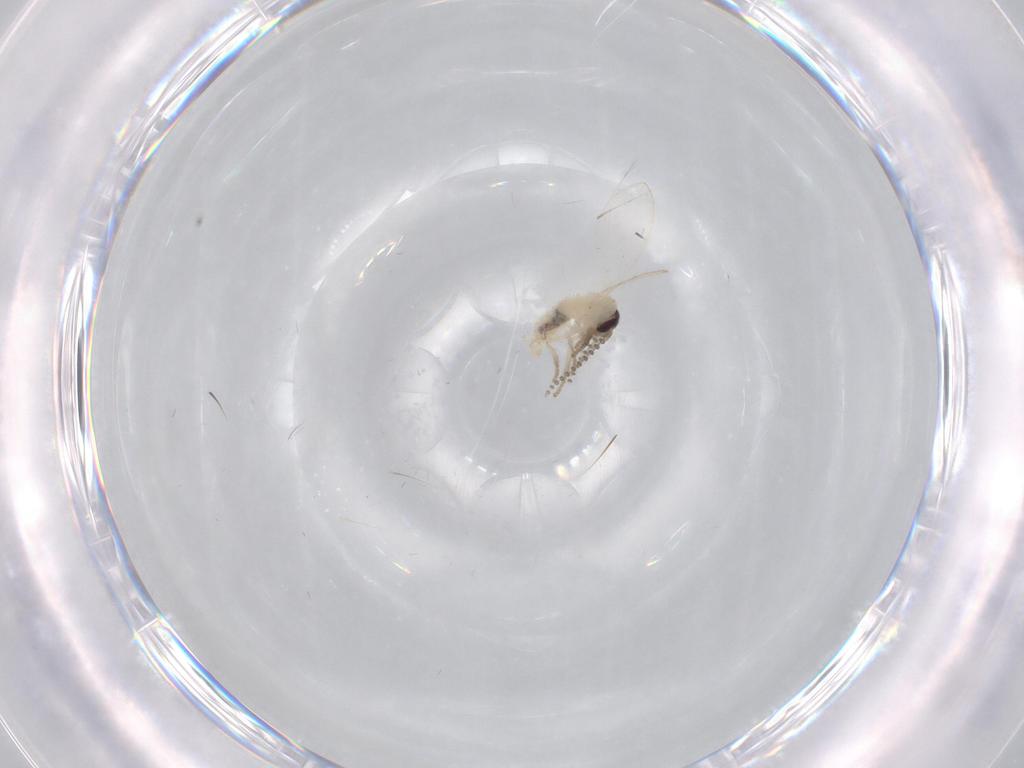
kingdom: Animalia
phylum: Arthropoda
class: Insecta
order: Diptera
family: Psychodidae
